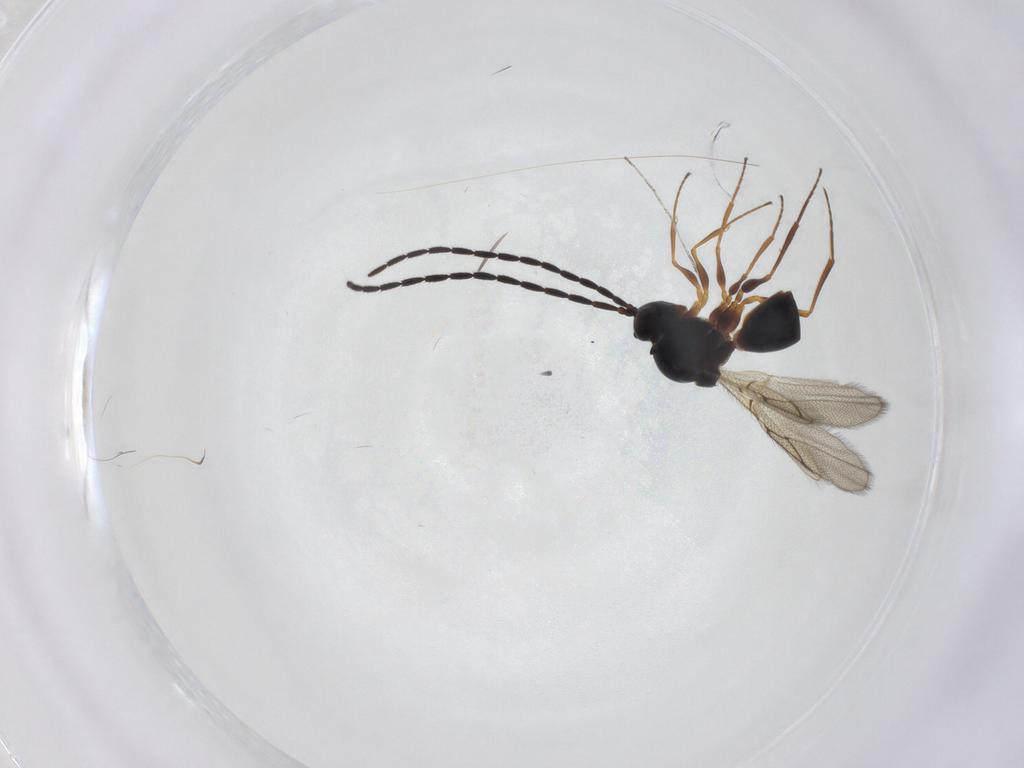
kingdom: Animalia
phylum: Arthropoda
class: Insecta
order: Hymenoptera
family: Figitidae
